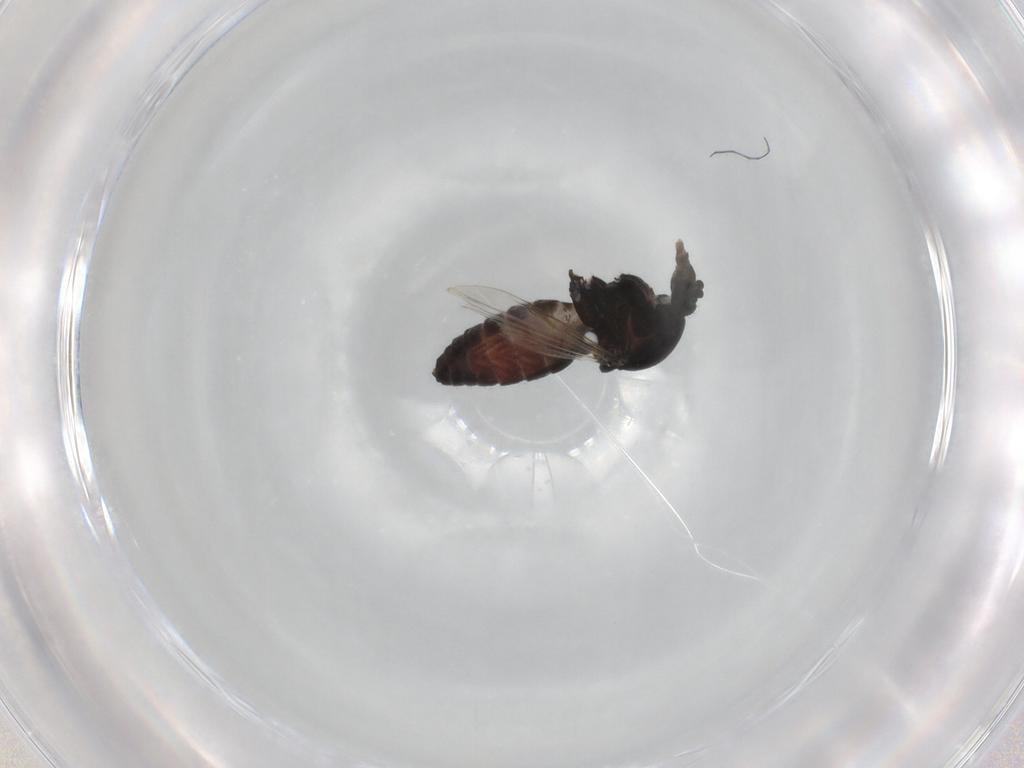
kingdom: Animalia
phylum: Arthropoda
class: Insecta
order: Diptera
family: Ceratopogonidae
